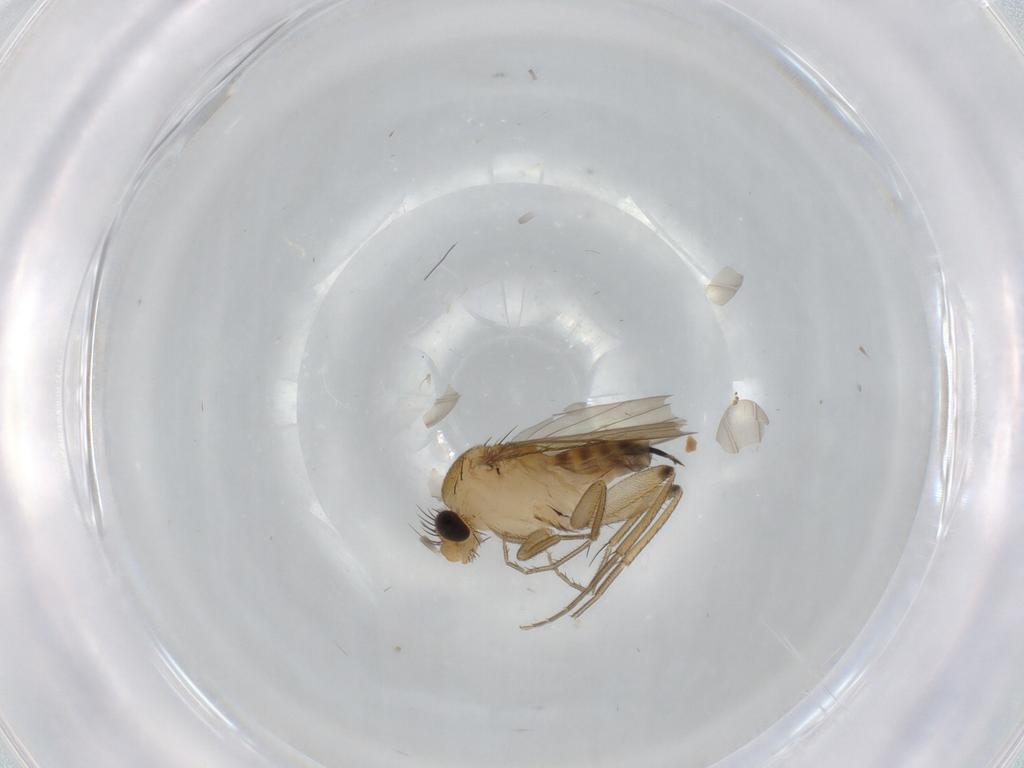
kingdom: Animalia
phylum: Arthropoda
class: Insecta
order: Diptera
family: Phoridae
